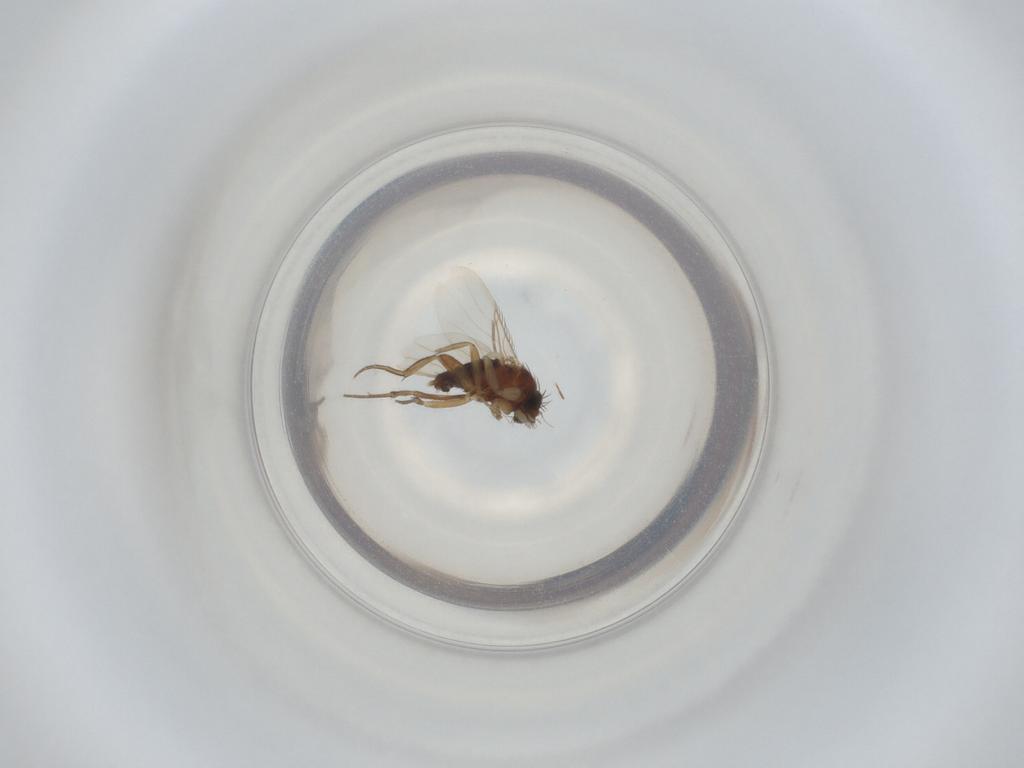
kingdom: Animalia
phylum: Arthropoda
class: Insecta
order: Diptera
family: Phoridae
